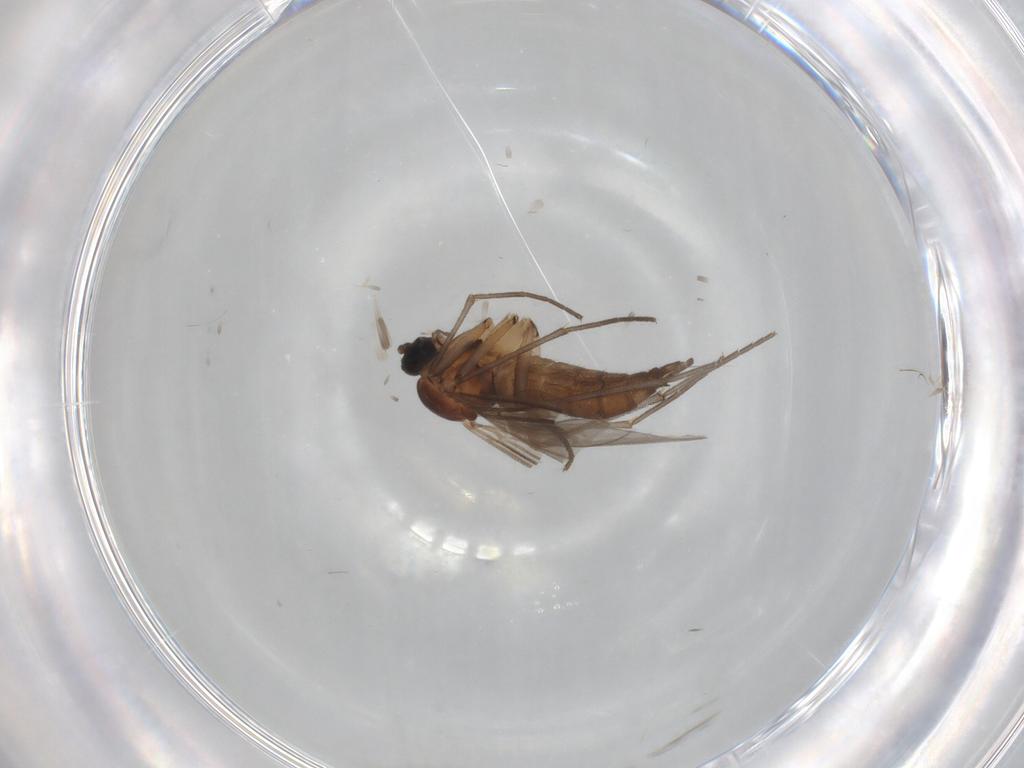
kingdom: Animalia
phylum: Arthropoda
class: Insecta
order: Diptera
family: Sciaridae
